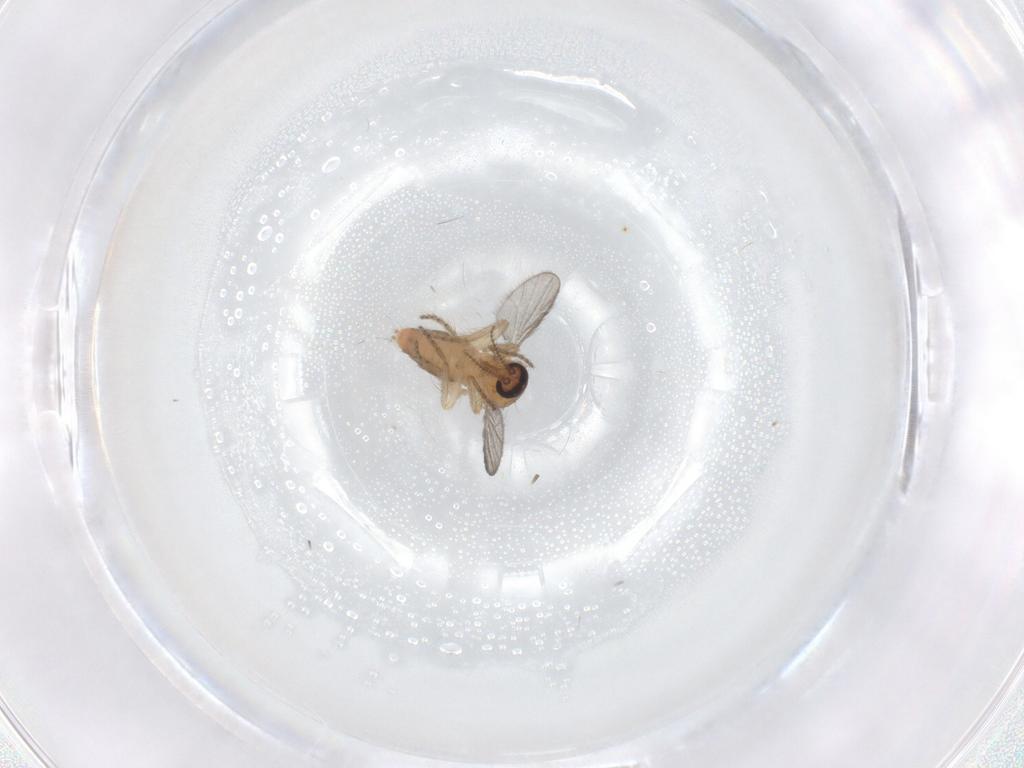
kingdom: Animalia
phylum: Arthropoda
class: Insecta
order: Diptera
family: Ceratopogonidae
